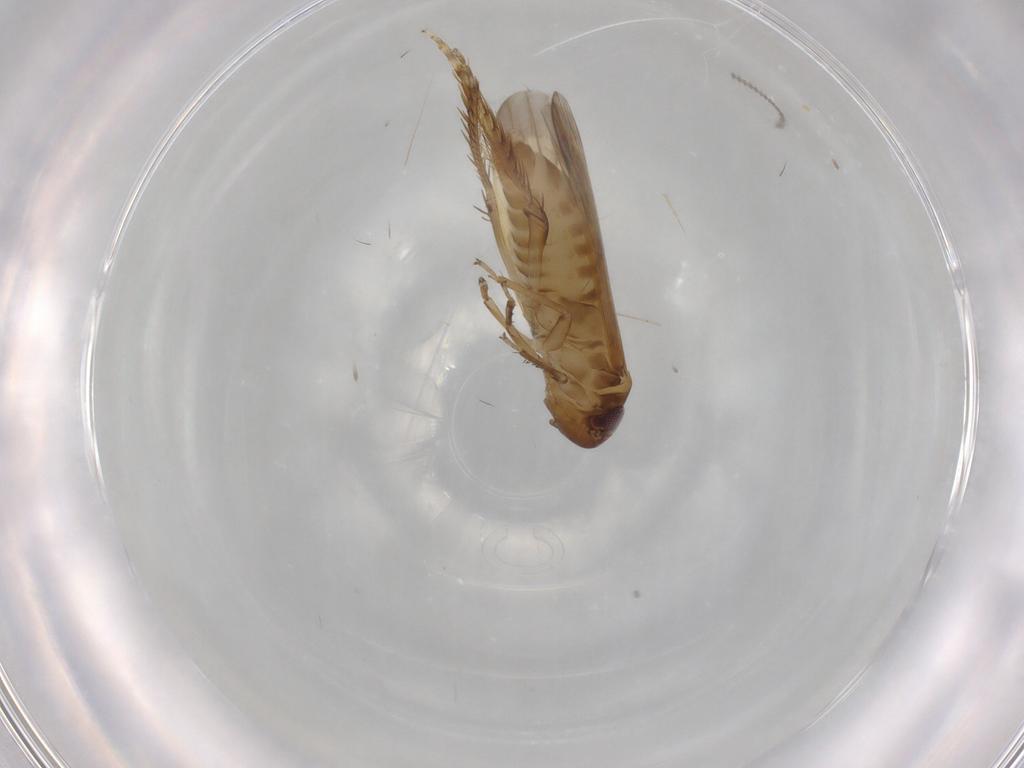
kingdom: Animalia
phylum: Arthropoda
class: Insecta
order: Hemiptera
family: Cicadellidae
